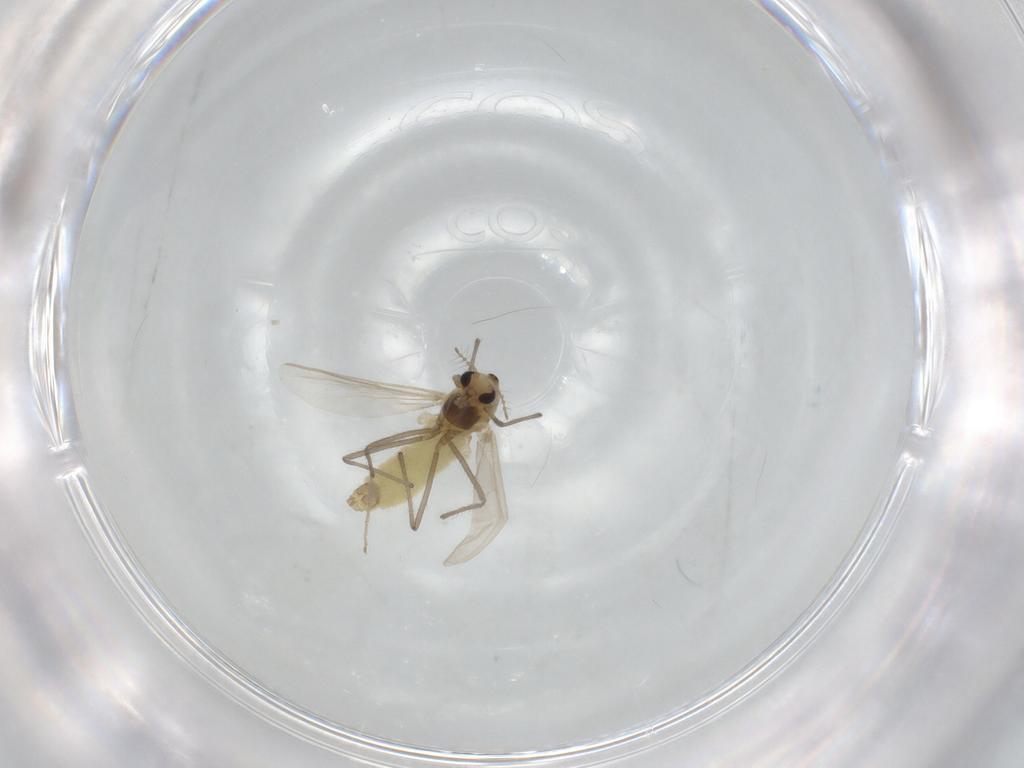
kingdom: Animalia
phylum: Arthropoda
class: Insecta
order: Diptera
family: Chironomidae
